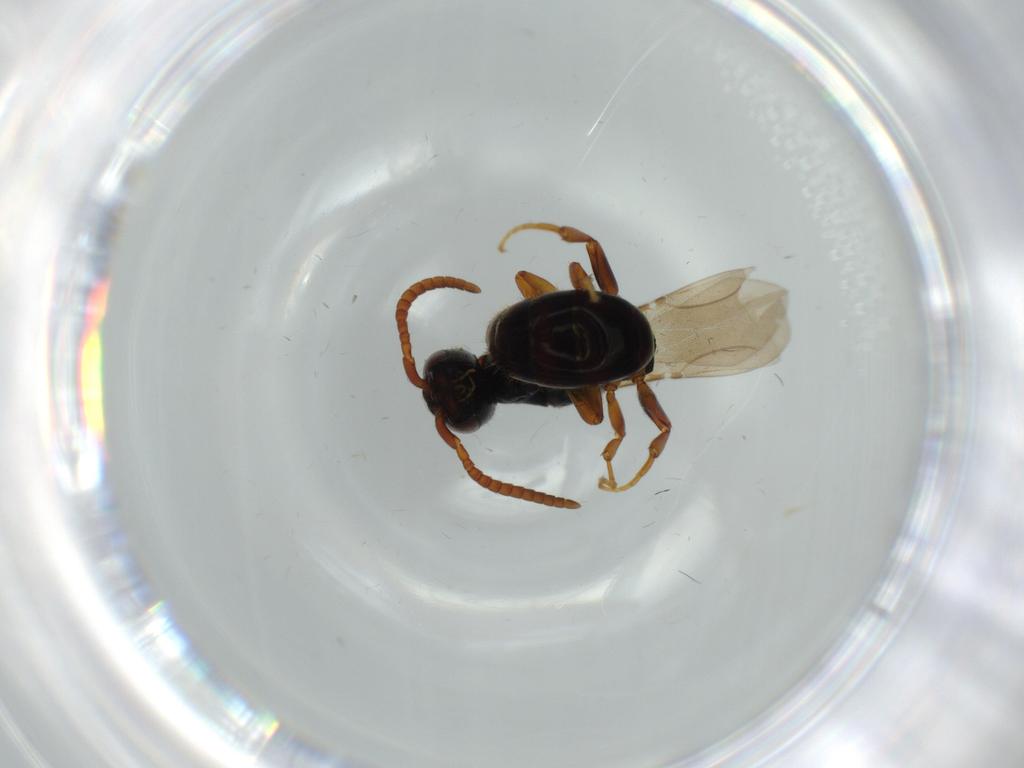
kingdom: Animalia
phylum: Arthropoda
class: Insecta
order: Hymenoptera
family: Bethylidae
